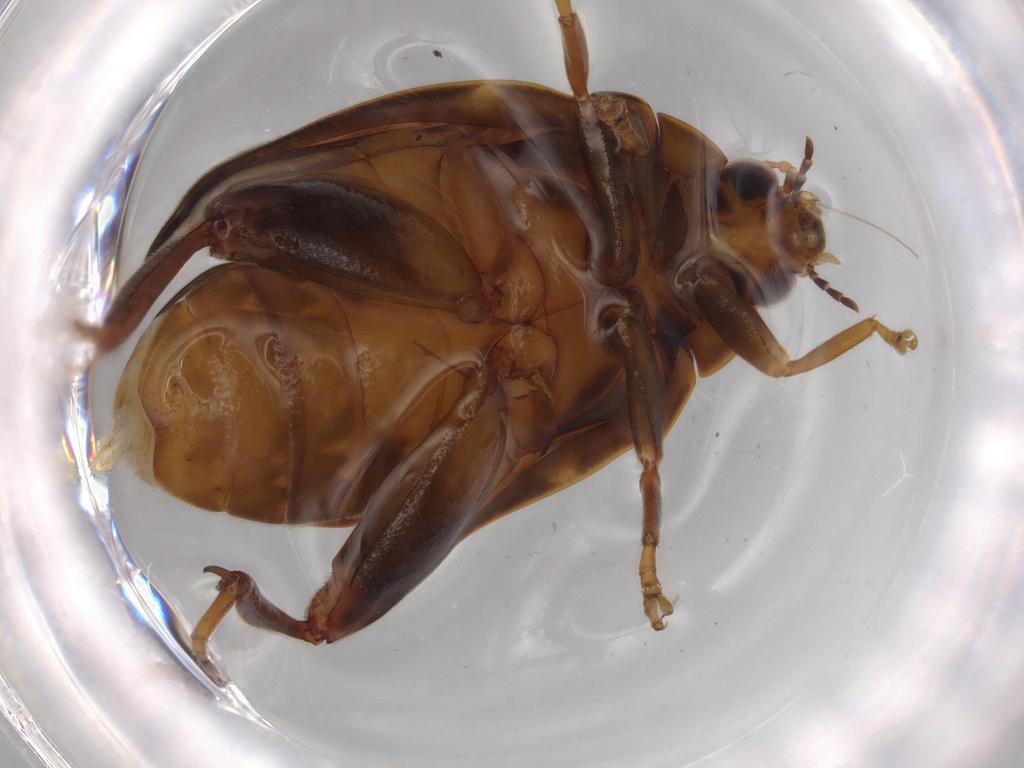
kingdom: Animalia
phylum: Arthropoda
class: Insecta
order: Coleoptera
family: Scirtidae
